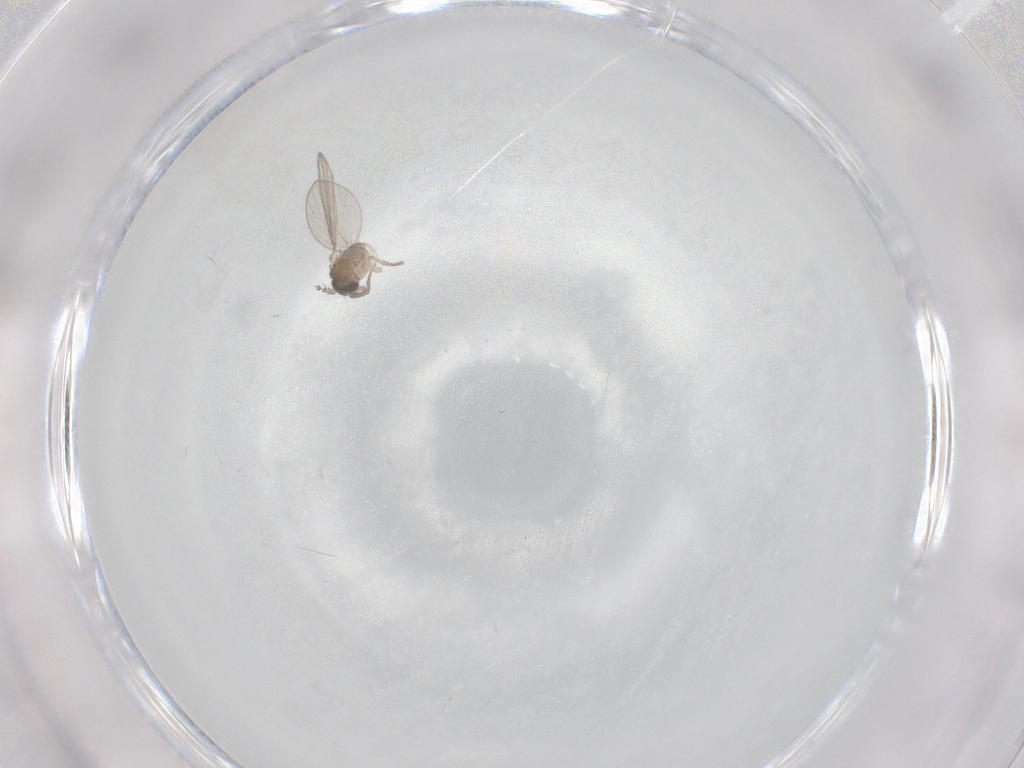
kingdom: Animalia
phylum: Arthropoda
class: Insecta
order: Diptera
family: Psychodidae
